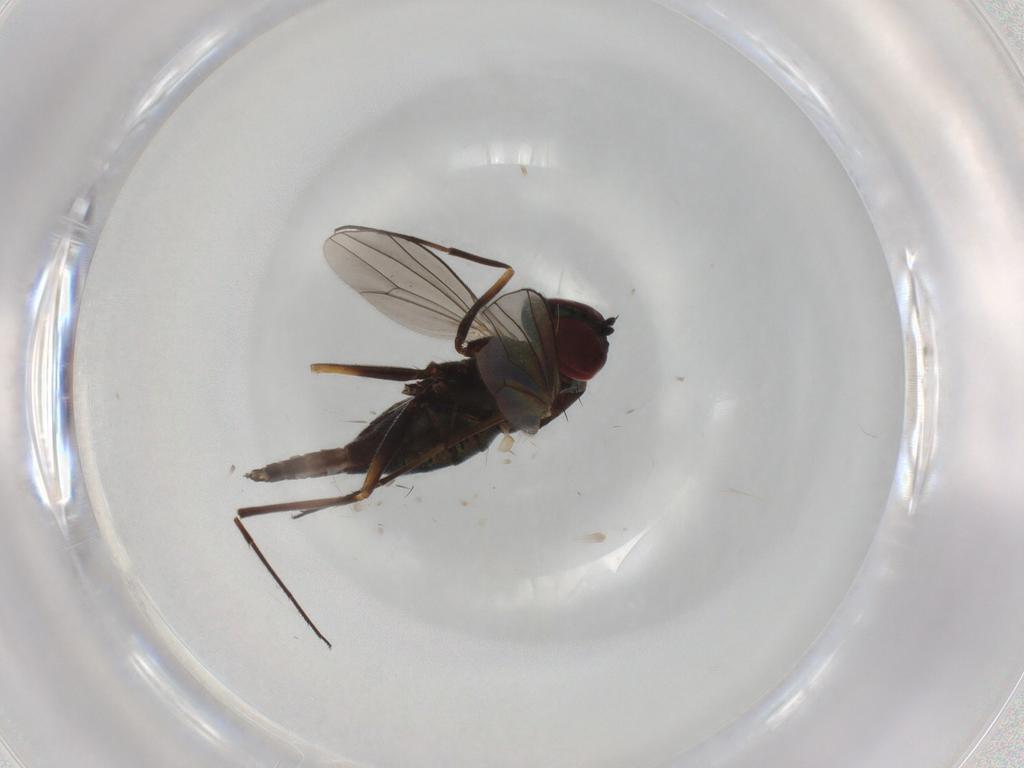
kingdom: Animalia
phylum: Arthropoda
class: Insecta
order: Diptera
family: Dolichopodidae
